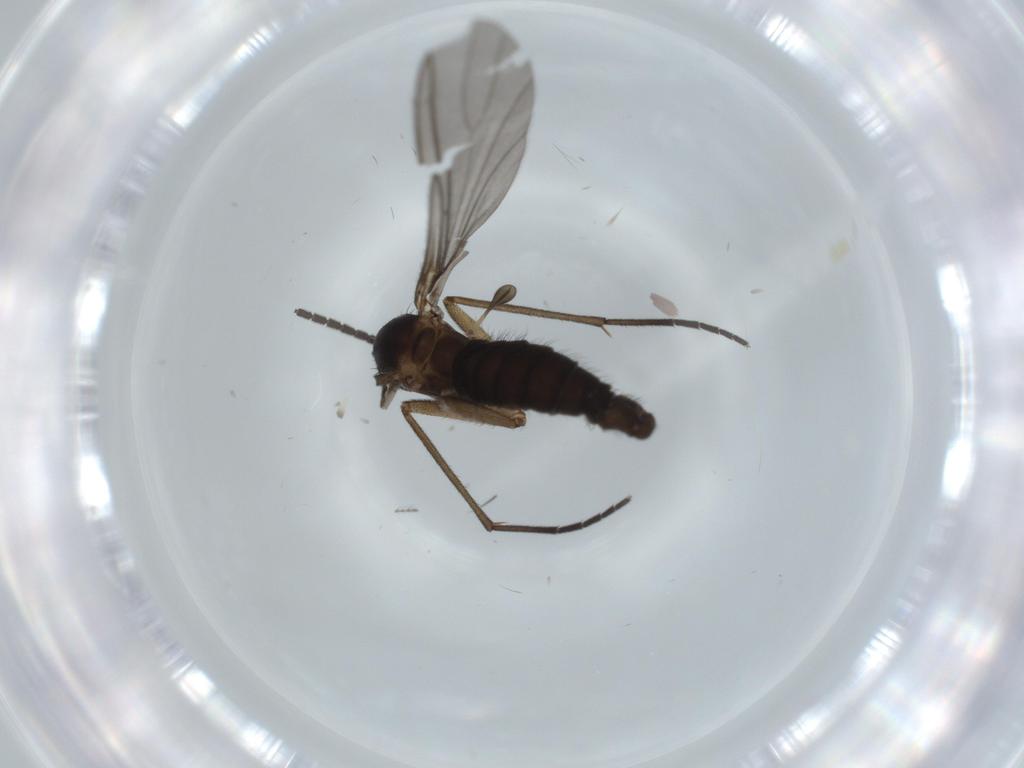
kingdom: Animalia
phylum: Arthropoda
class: Insecta
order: Diptera
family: Sciaridae
